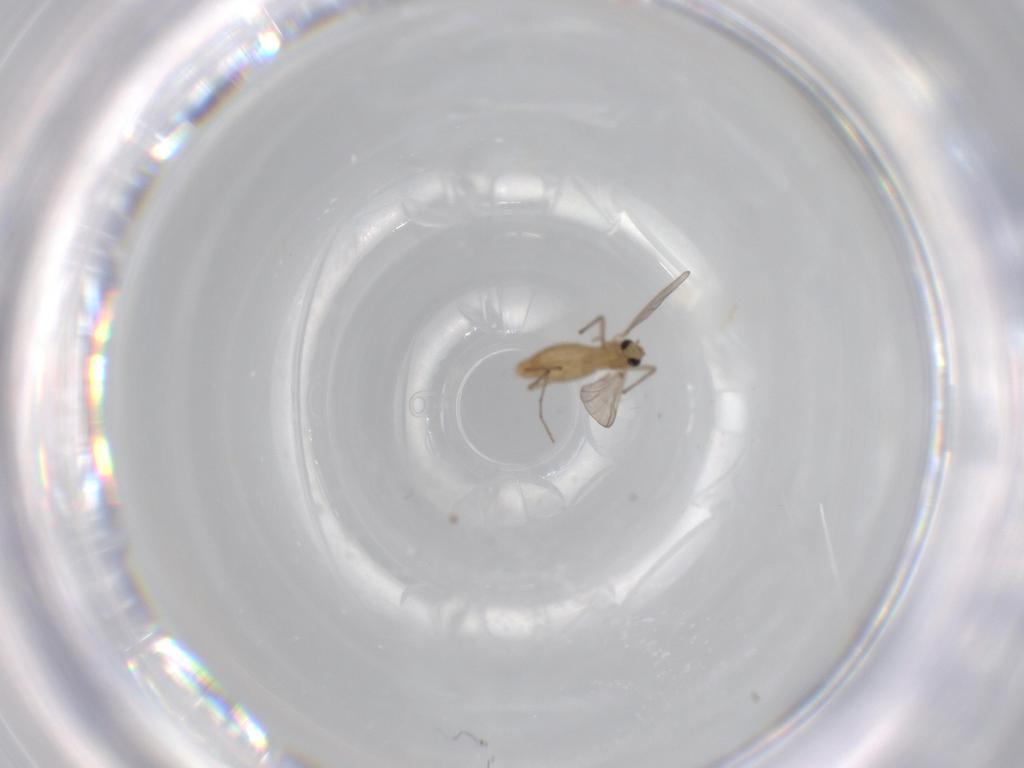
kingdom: Animalia
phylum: Arthropoda
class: Insecta
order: Diptera
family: Chironomidae
